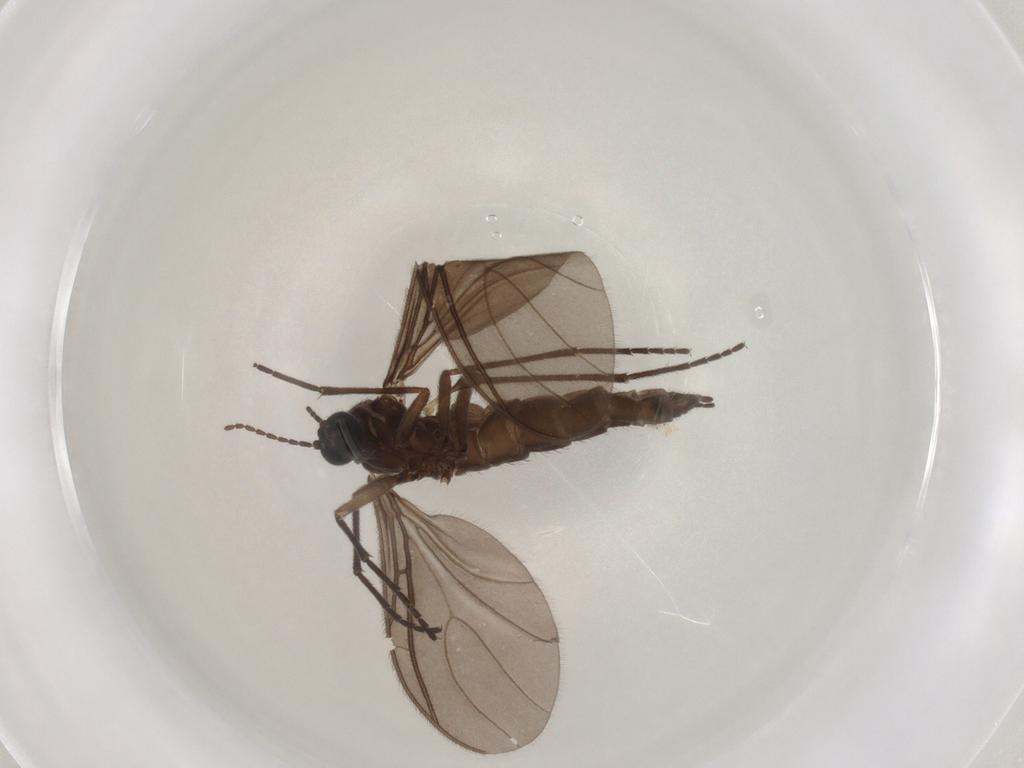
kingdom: Animalia
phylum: Arthropoda
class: Insecta
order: Diptera
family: Sciaridae
